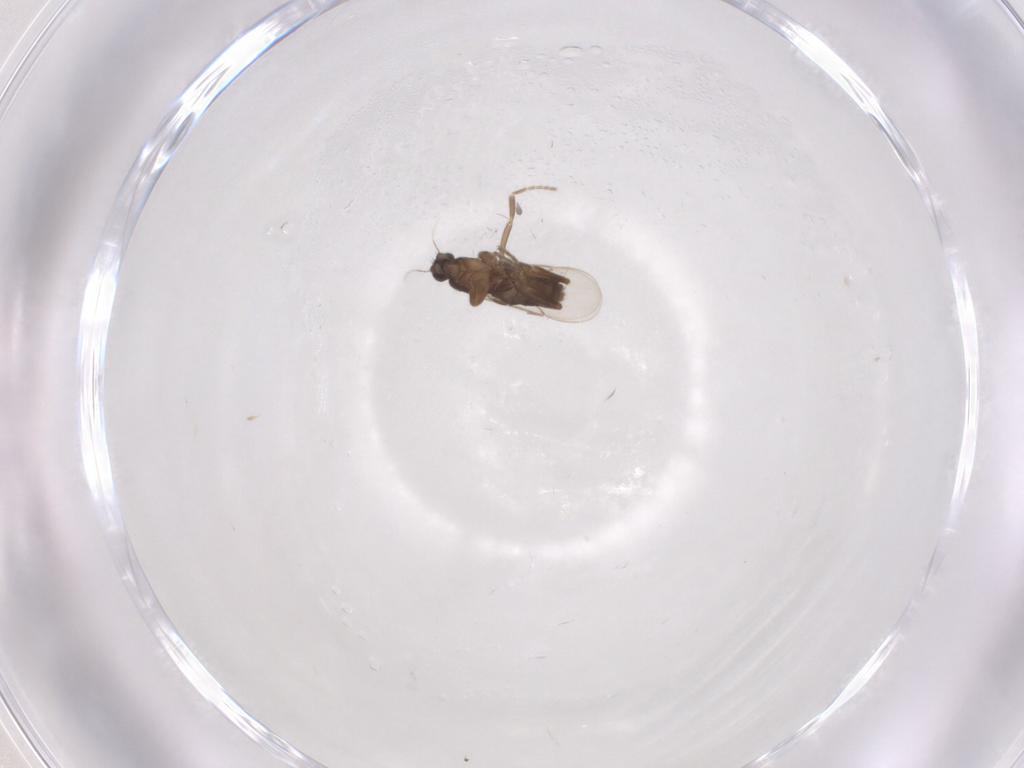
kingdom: Animalia
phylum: Arthropoda
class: Insecta
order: Diptera
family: Phoridae
